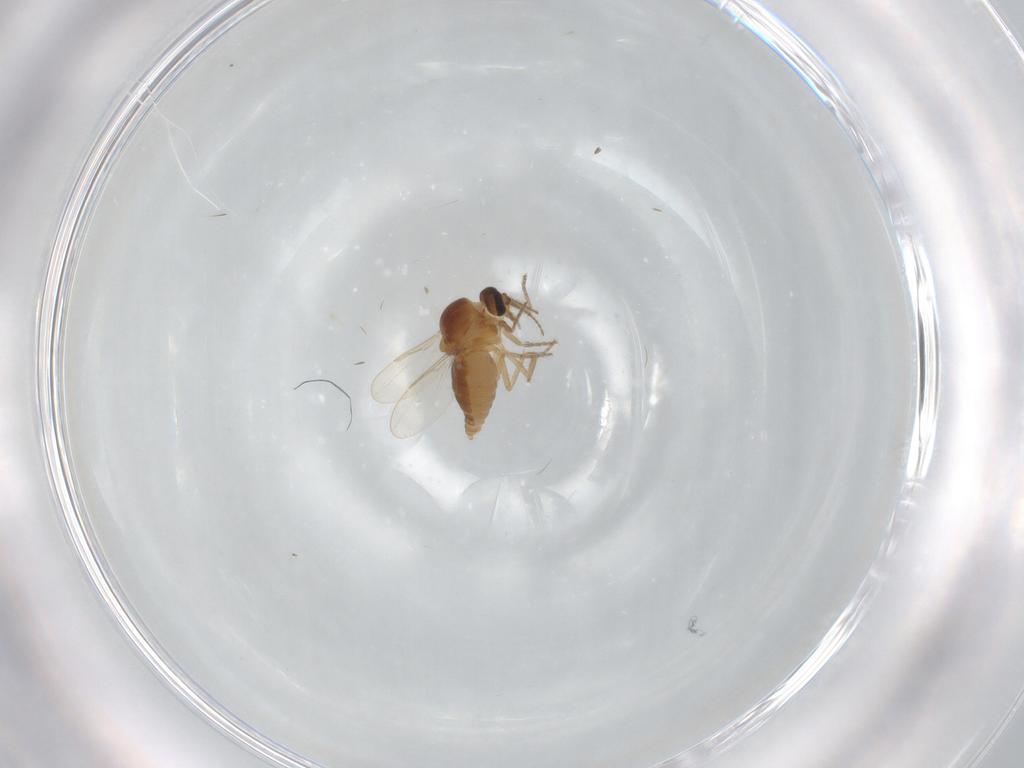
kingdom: Animalia
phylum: Arthropoda
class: Insecta
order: Diptera
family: Ceratopogonidae
